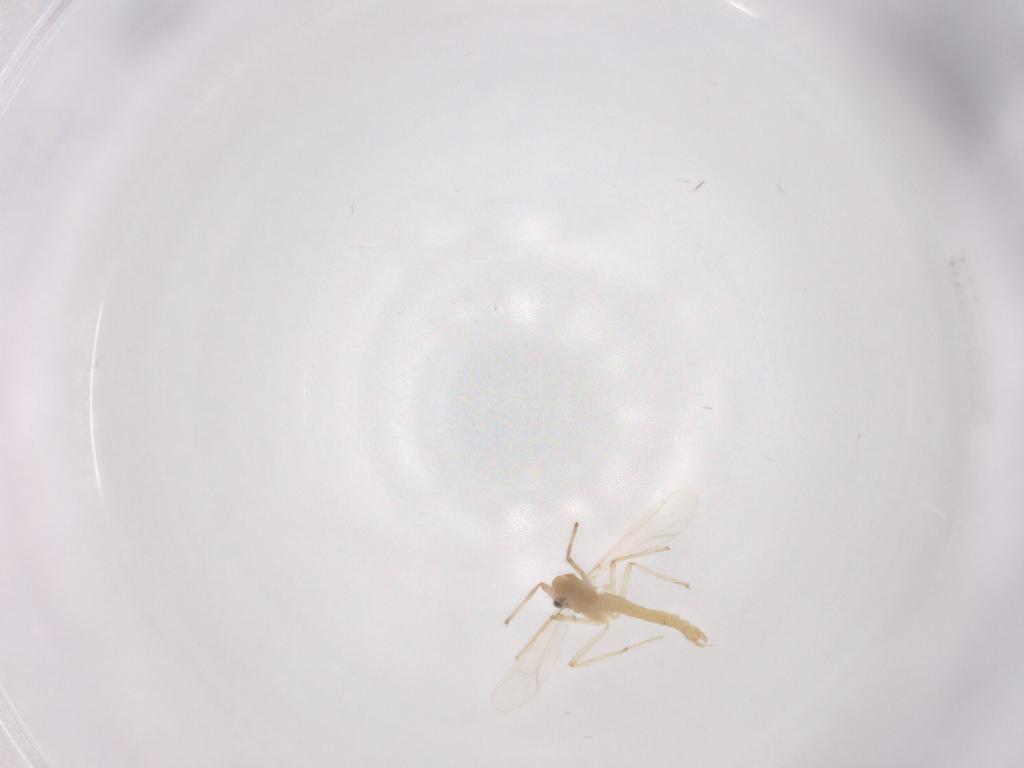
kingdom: Animalia
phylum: Arthropoda
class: Insecta
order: Diptera
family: Chironomidae
